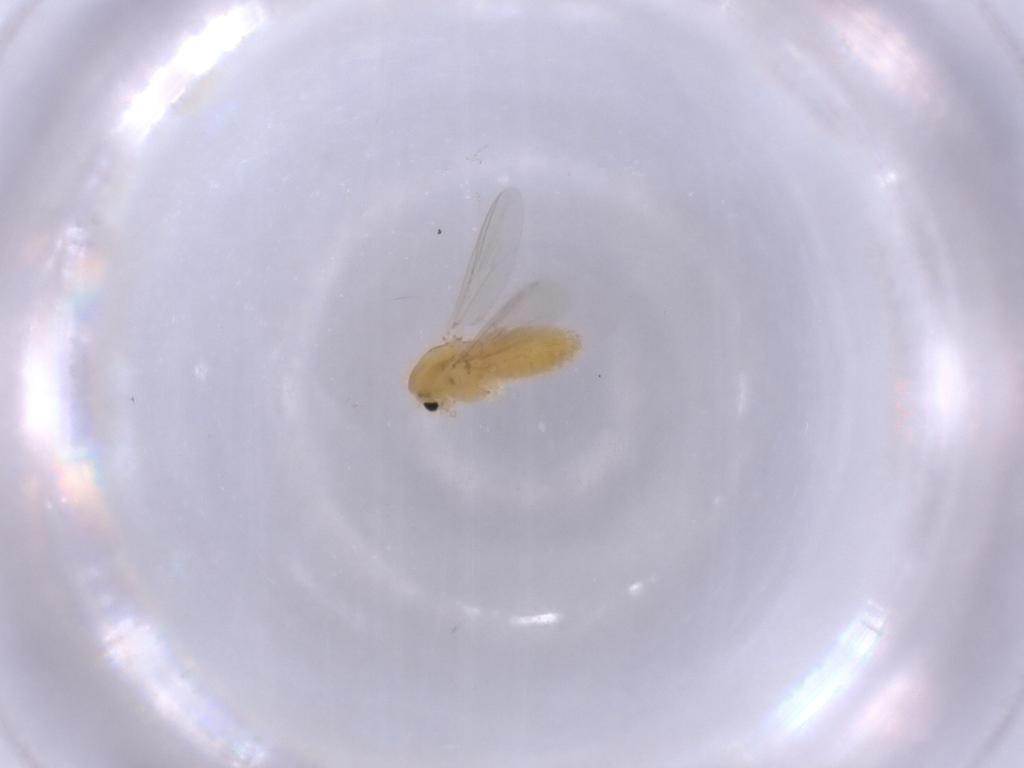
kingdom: Animalia
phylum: Arthropoda
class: Insecta
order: Diptera
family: Chironomidae
